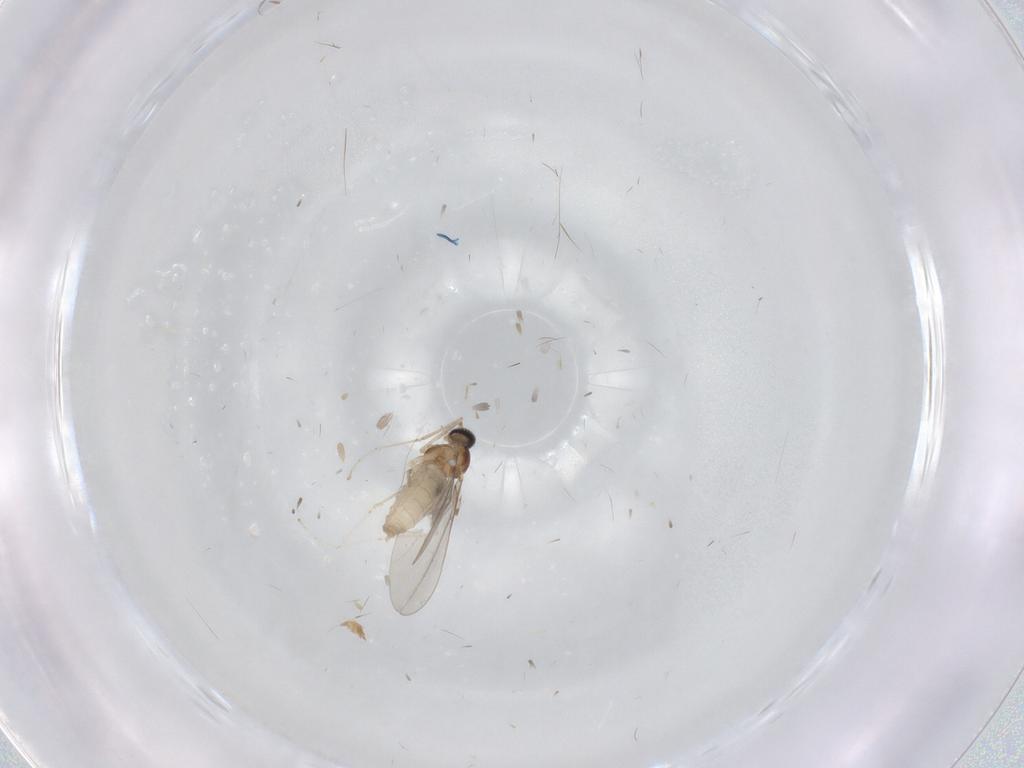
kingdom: Animalia
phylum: Arthropoda
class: Insecta
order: Diptera
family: Cecidomyiidae
